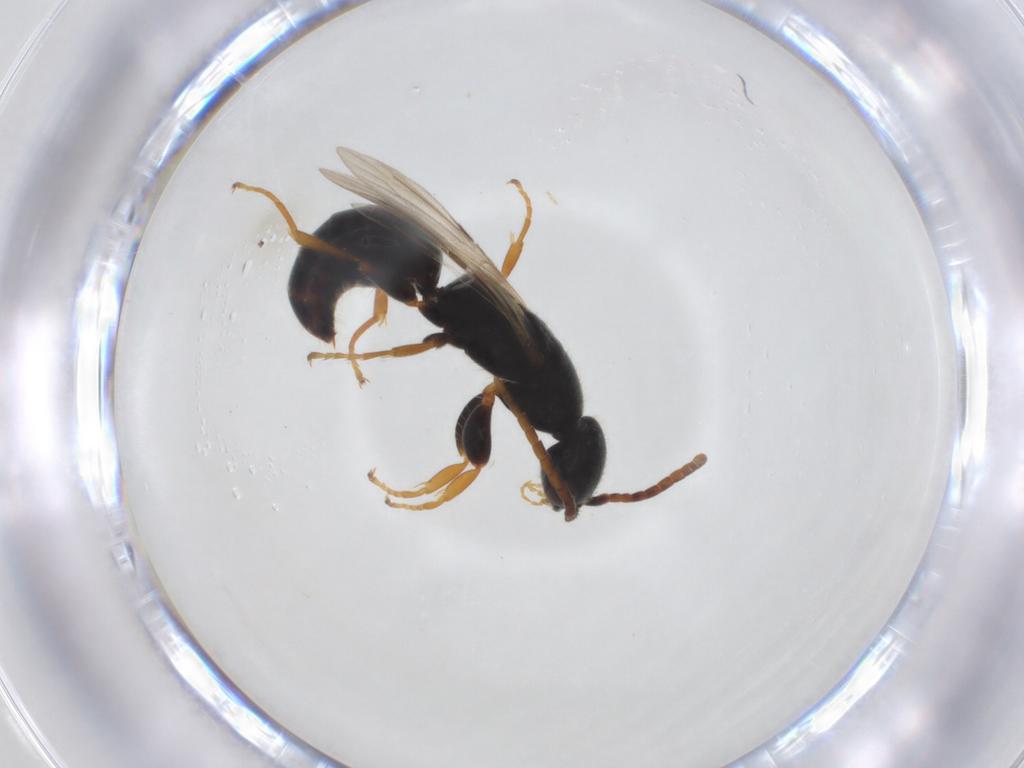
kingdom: Animalia
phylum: Arthropoda
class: Insecta
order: Hymenoptera
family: Bethylidae
